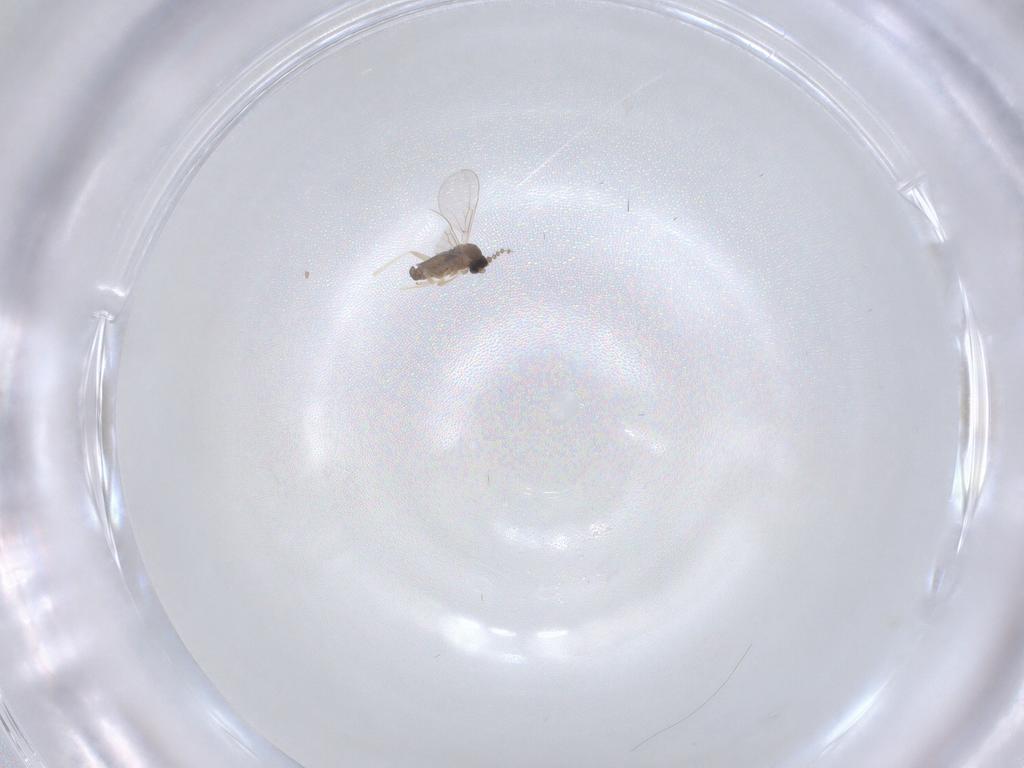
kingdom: Animalia
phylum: Arthropoda
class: Insecta
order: Diptera
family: Cecidomyiidae
